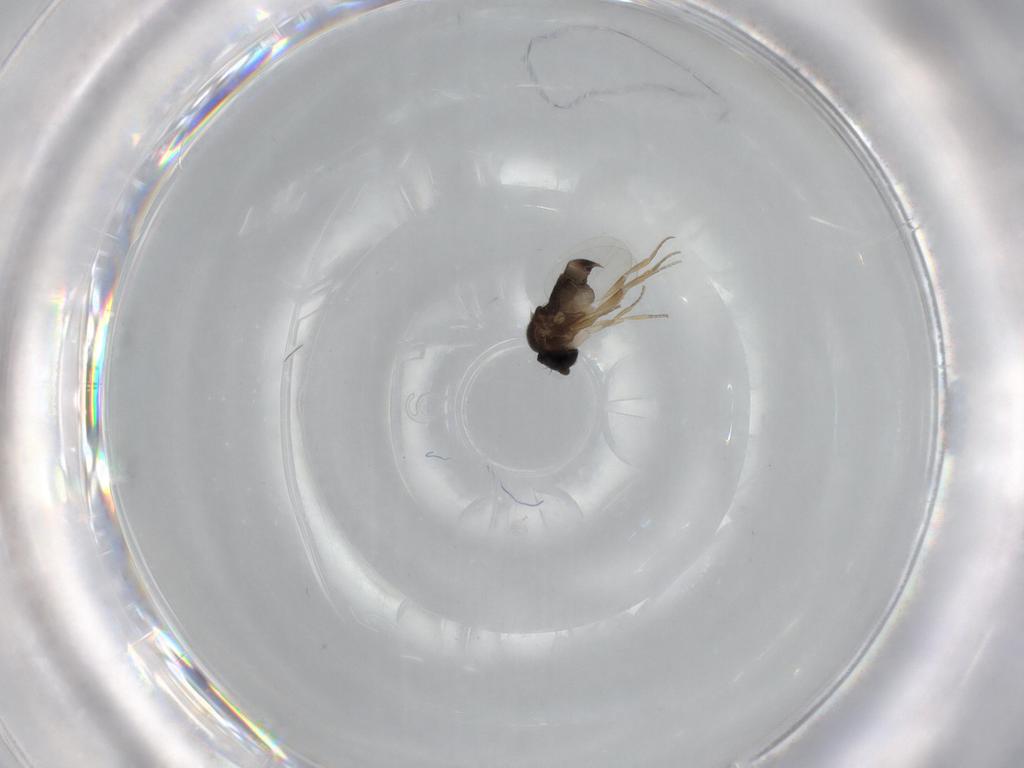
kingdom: Animalia
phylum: Arthropoda
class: Insecta
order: Diptera
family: Phoridae
